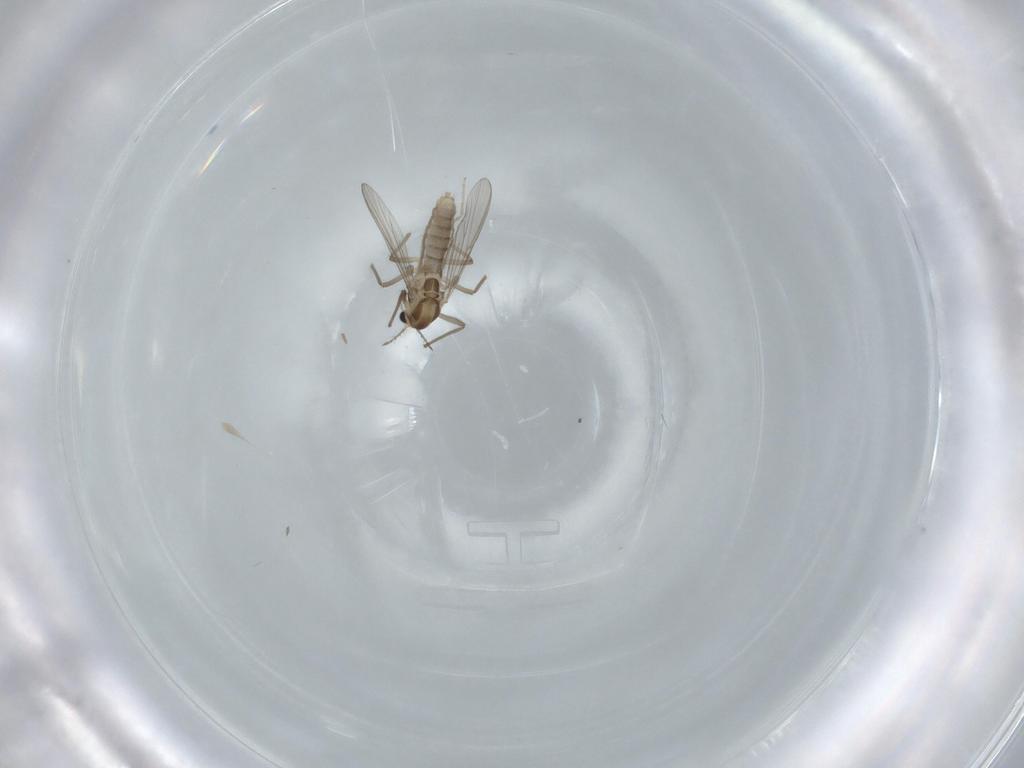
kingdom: Animalia
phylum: Arthropoda
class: Insecta
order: Diptera
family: Chironomidae
